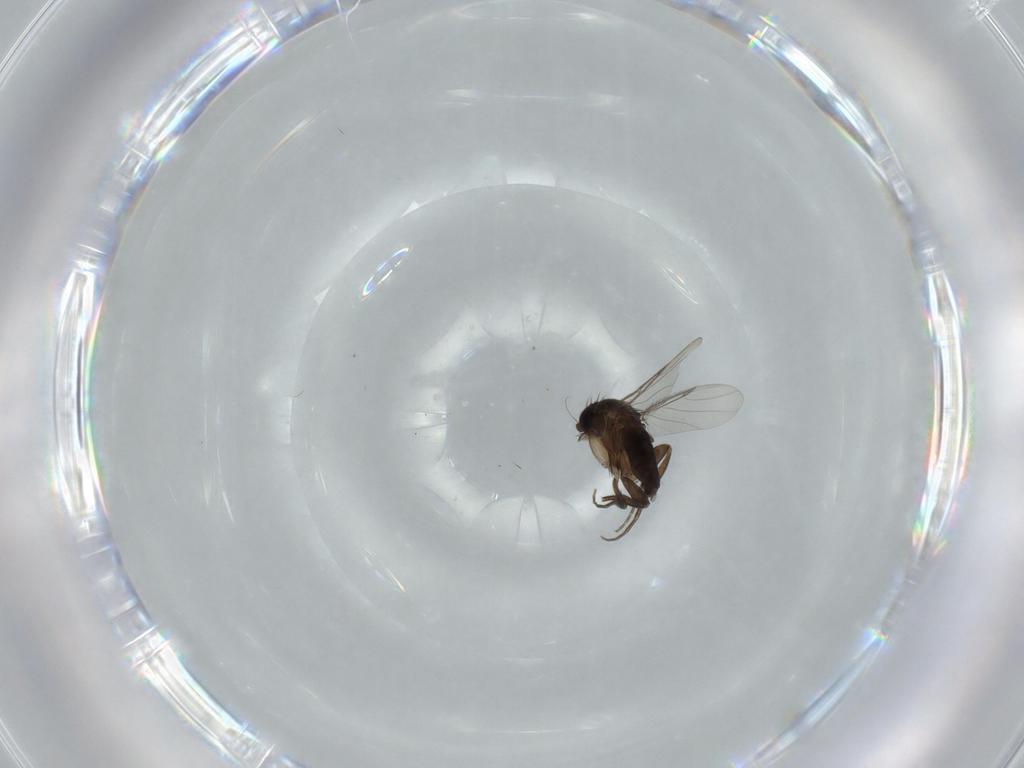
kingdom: Animalia
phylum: Arthropoda
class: Insecta
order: Diptera
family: Phoridae
